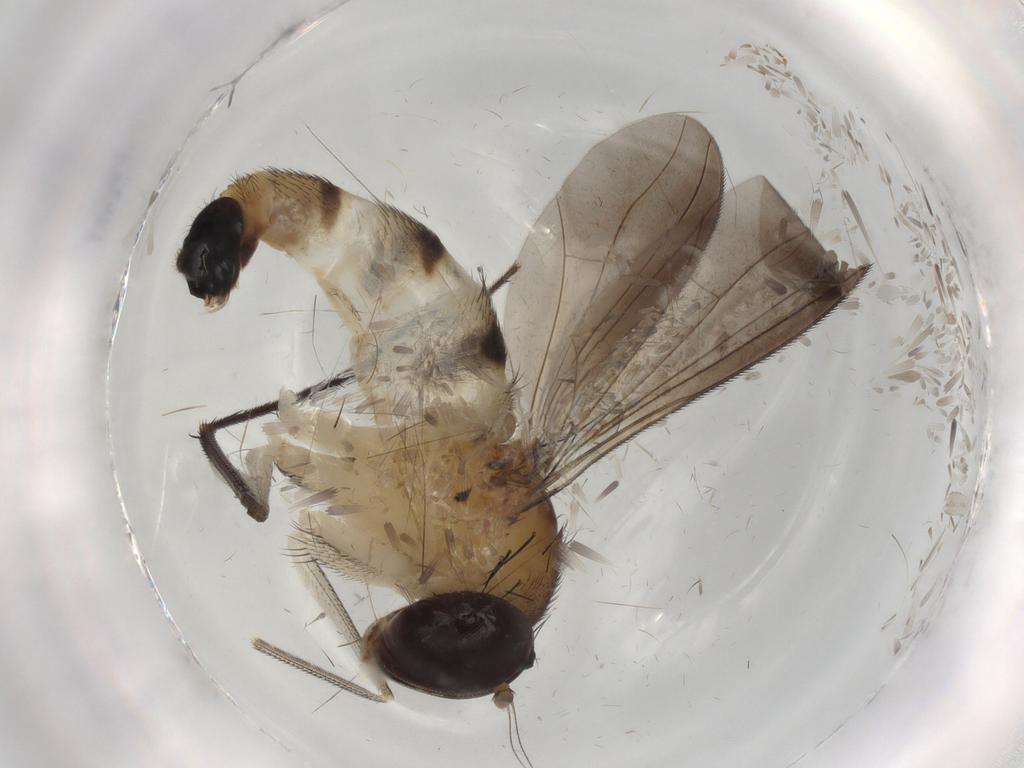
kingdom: Animalia
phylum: Arthropoda
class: Insecta
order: Diptera
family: Dolichopodidae
